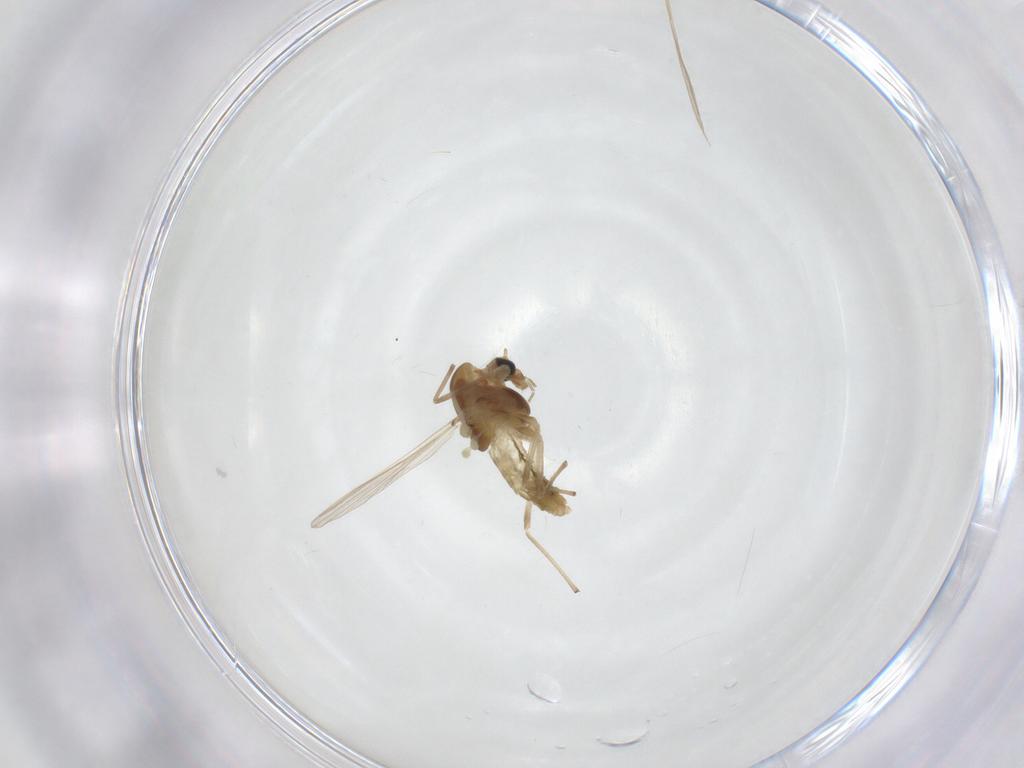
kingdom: Animalia
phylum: Arthropoda
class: Insecta
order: Diptera
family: Chironomidae
